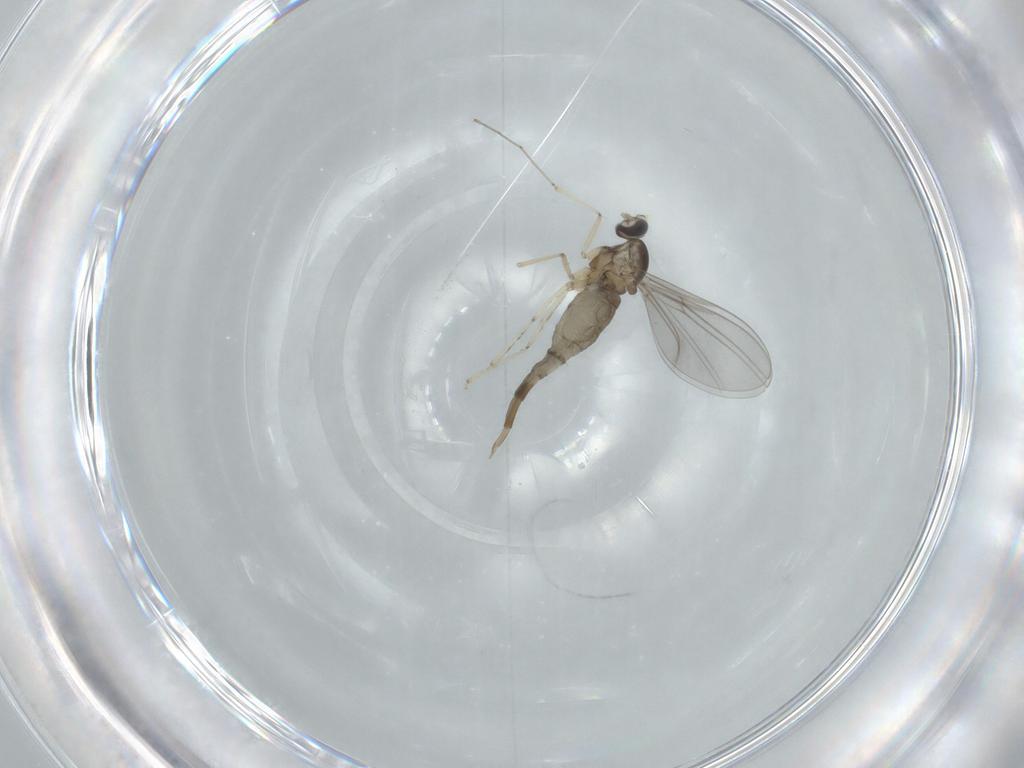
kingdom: Animalia
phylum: Arthropoda
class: Insecta
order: Diptera
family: Cecidomyiidae
